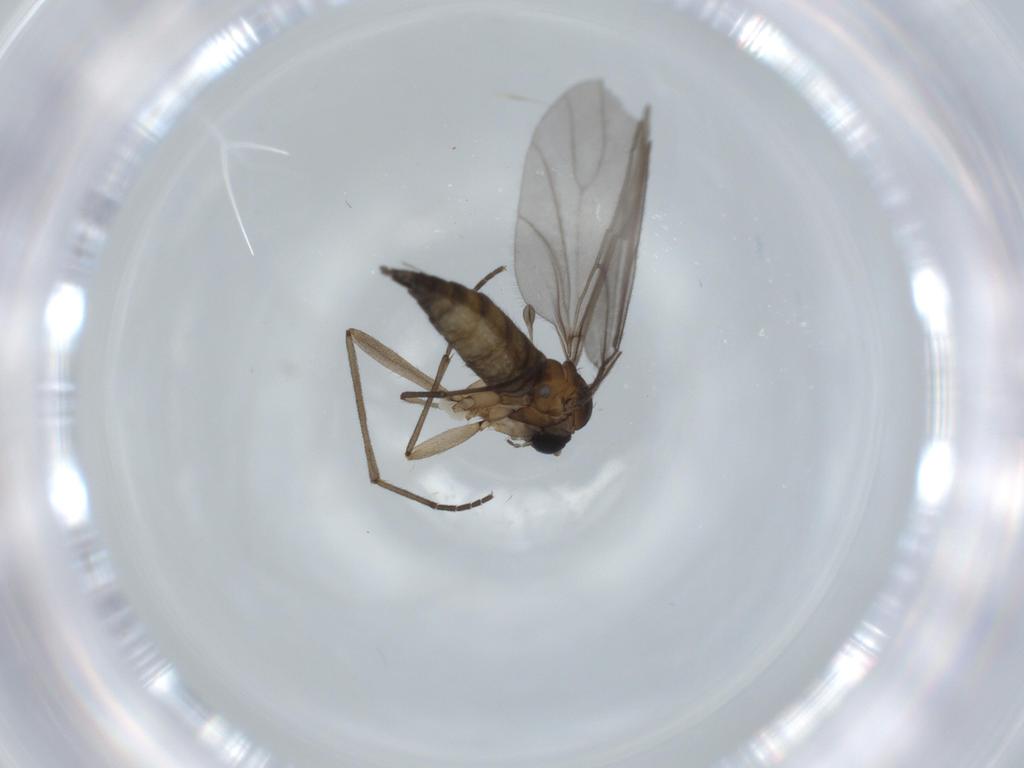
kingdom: Animalia
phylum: Arthropoda
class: Insecta
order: Diptera
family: Sciaridae
